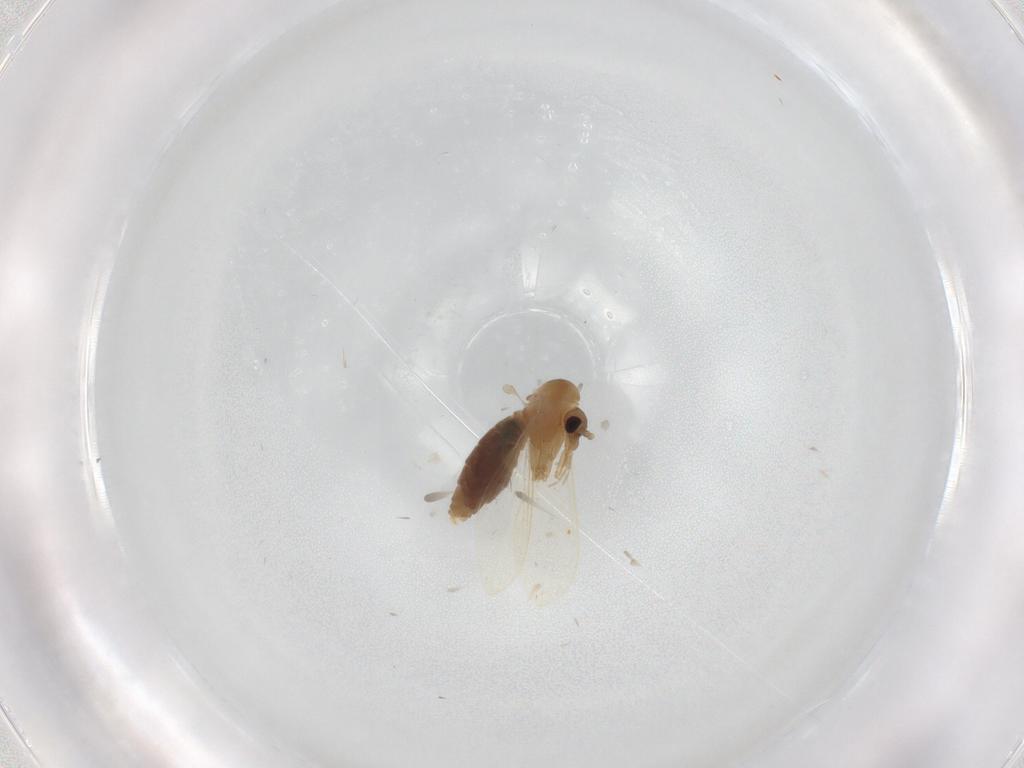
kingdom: Animalia
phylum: Arthropoda
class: Insecta
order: Diptera
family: Psychodidae
